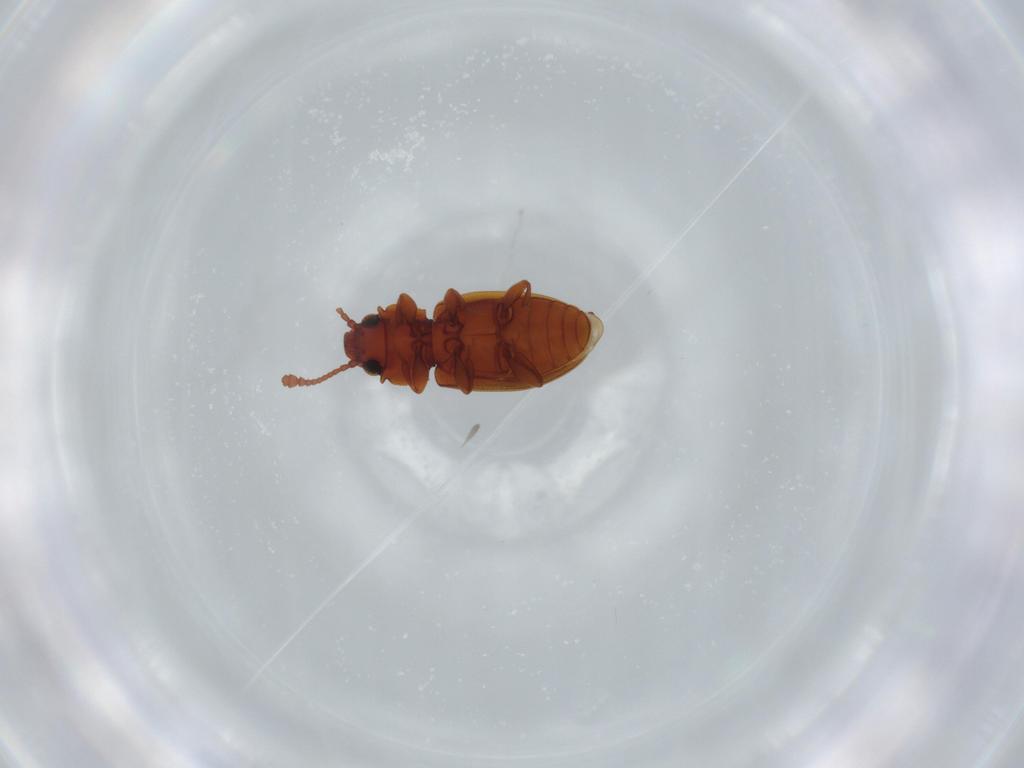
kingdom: Animalia
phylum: Arthropoda
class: Insecta
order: Coleoptera
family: Silvanidae
